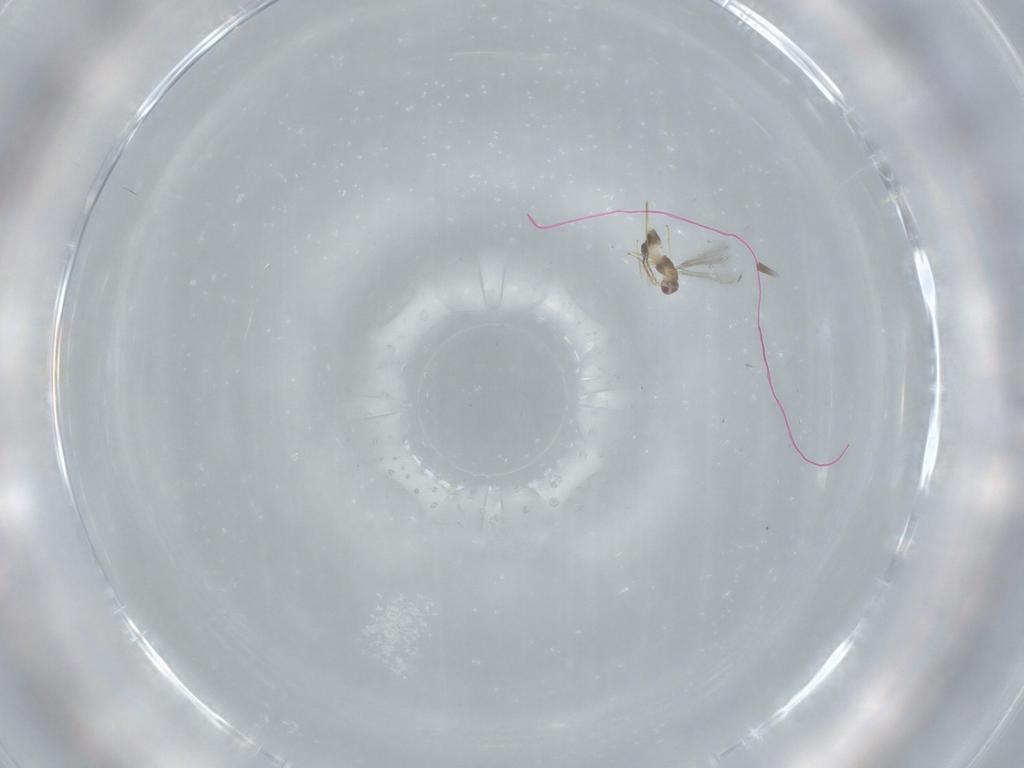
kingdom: Animalia
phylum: Arthropoda
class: Insecta
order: Hymenoptera
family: Mymaridae
